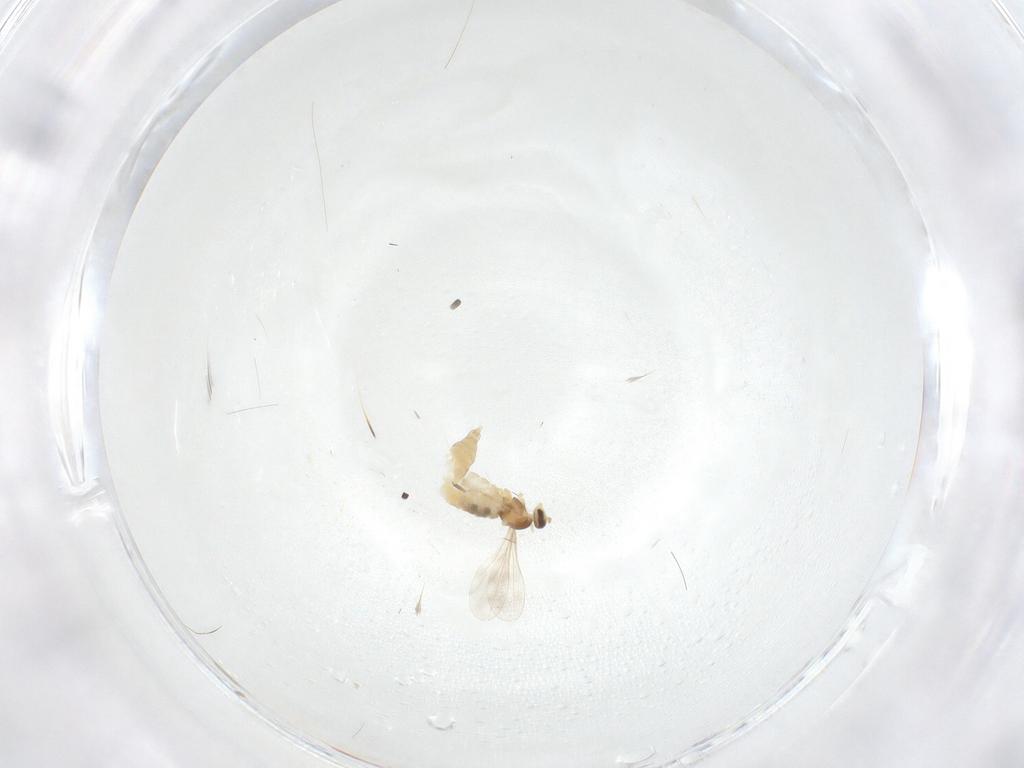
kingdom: Animalia
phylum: Arthropoda
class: Insecta
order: Diptera
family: Cecidomyiidae
